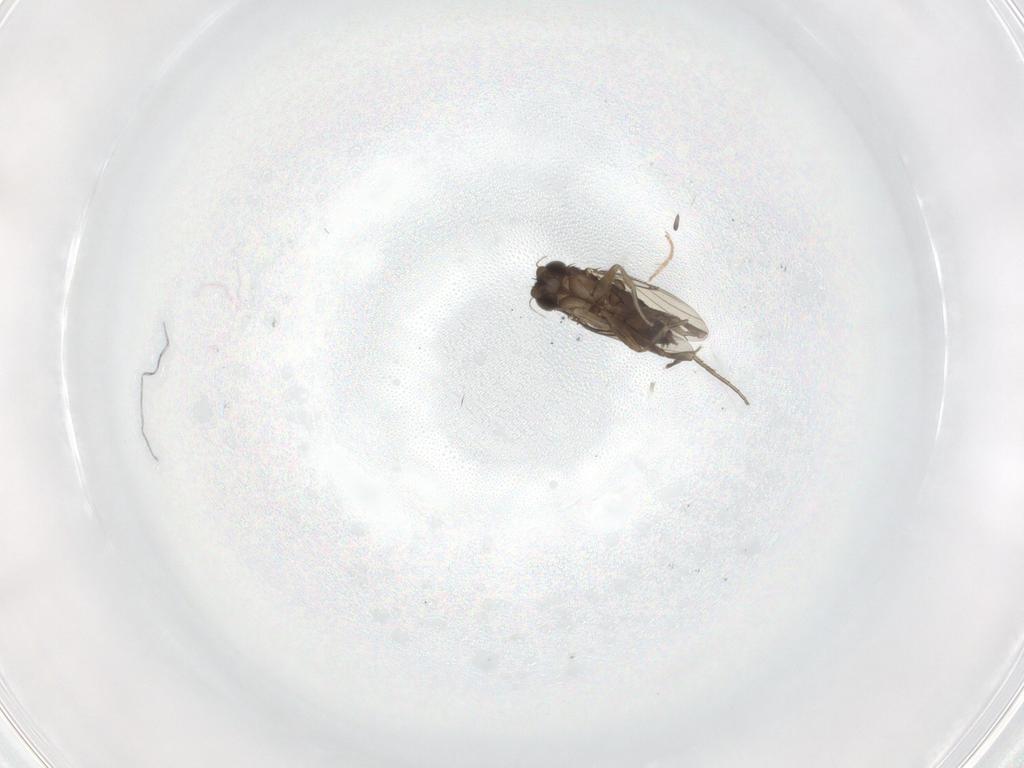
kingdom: Animalia
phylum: Arthropoda
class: Insecta
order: Diptera
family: Phoridae
